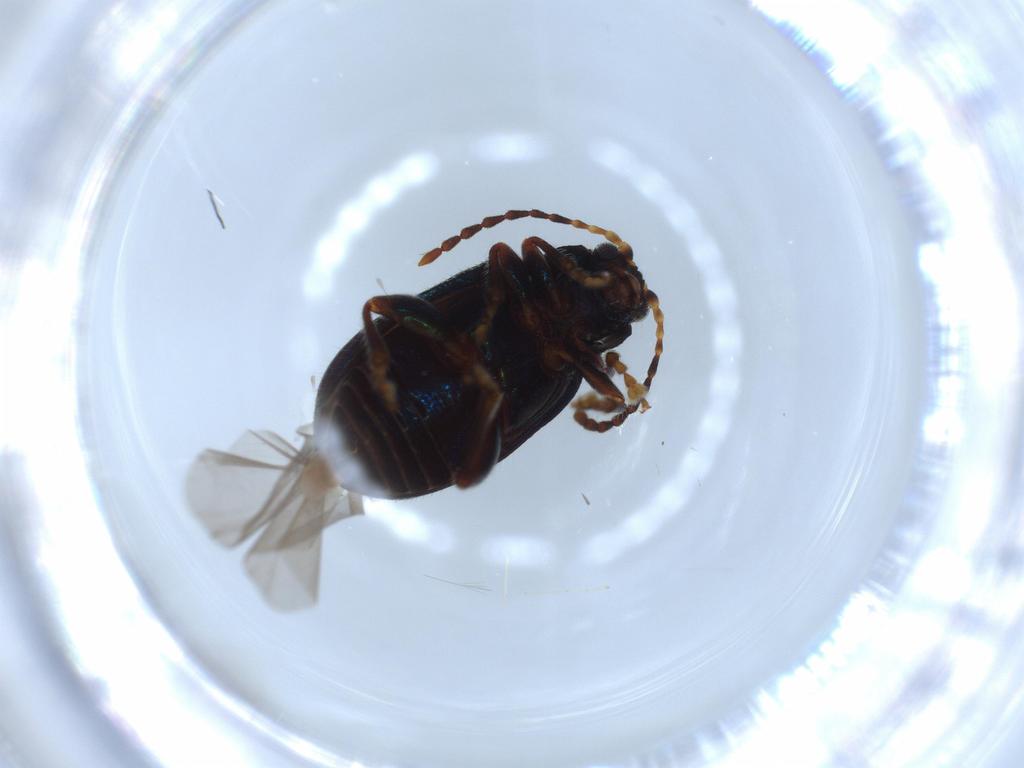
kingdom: Animalia
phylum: Arthropoda
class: Insecta
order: Coleoptera
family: Chrysomelidae
